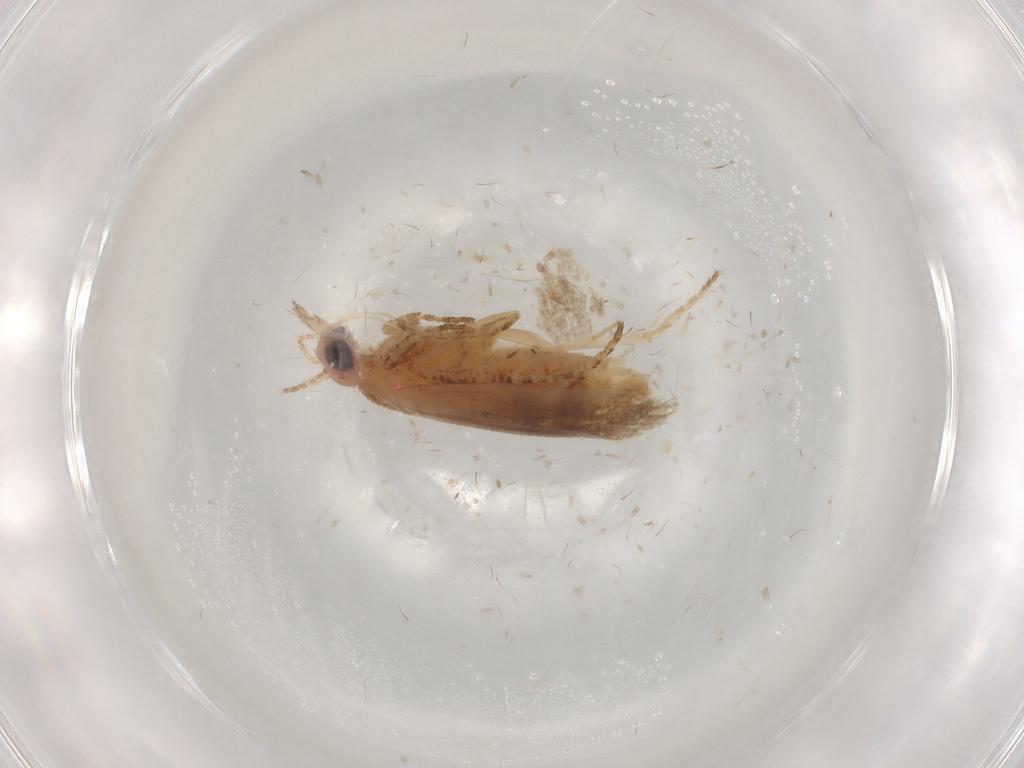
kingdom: Animalia
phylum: Arthropoda
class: Insecta
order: Lepidoptera
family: Plutellidae
